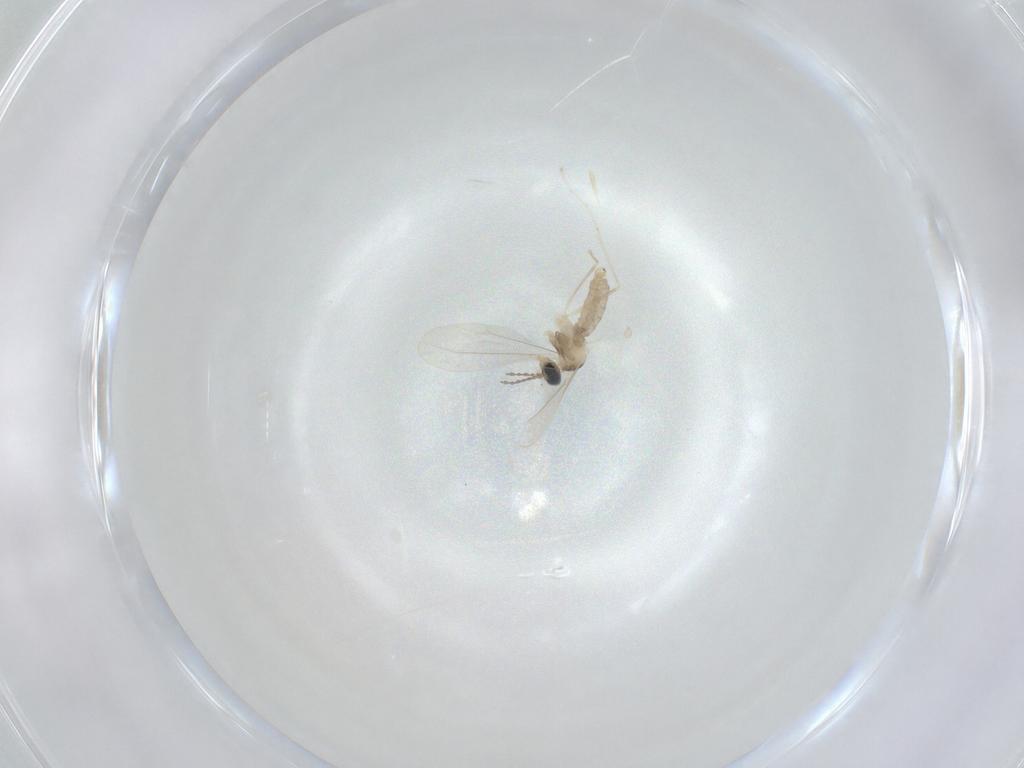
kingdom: Animalia
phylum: Arthropoda
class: Insecta
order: Diptera
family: Cecidomyiidae
